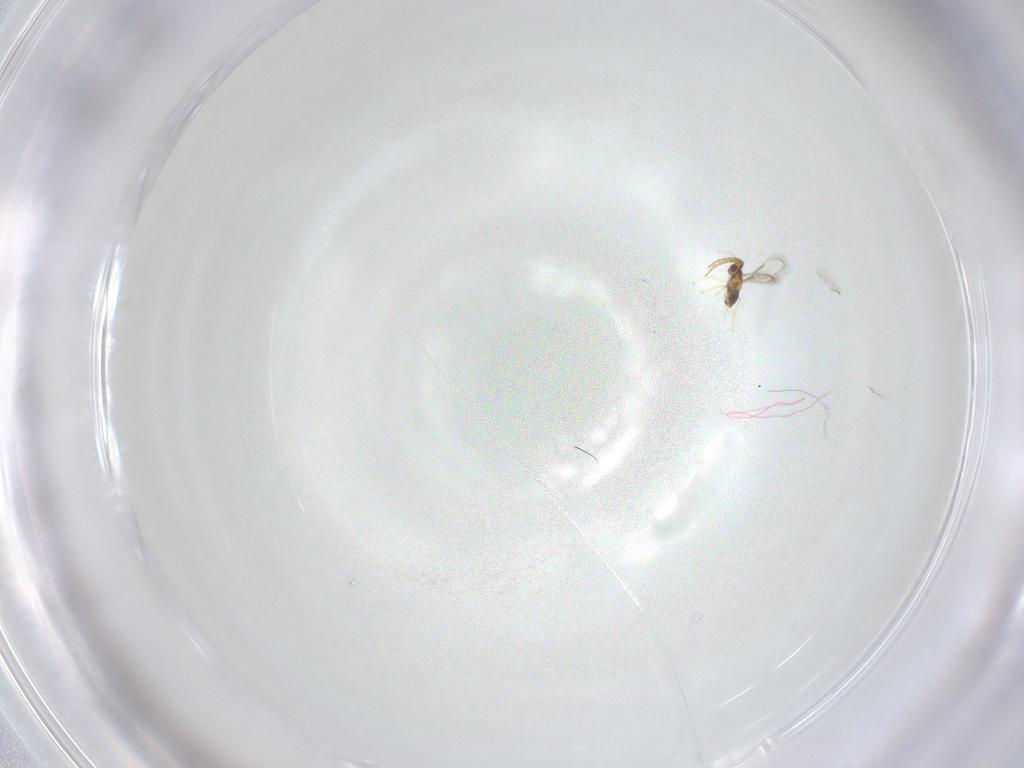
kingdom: Animalia
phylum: Arthropoda
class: Insecta
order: Diptera
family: Cecidomyiidae
